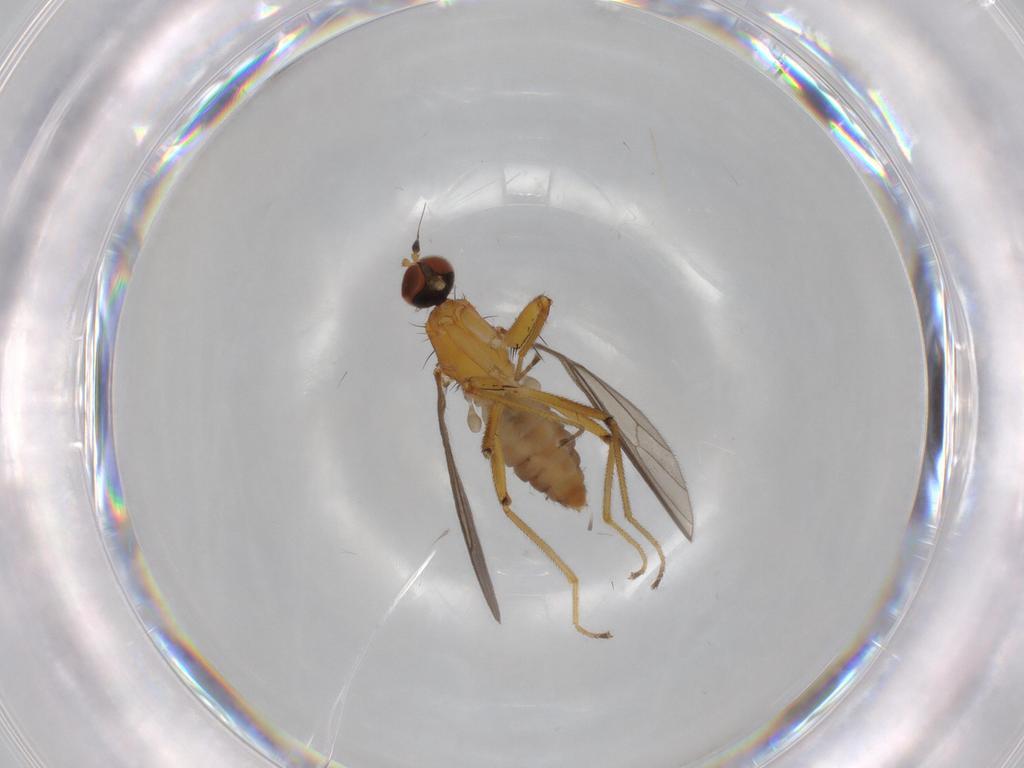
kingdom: Animalia
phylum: Arthropoda
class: Insecta
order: Diptera
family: Empididae
